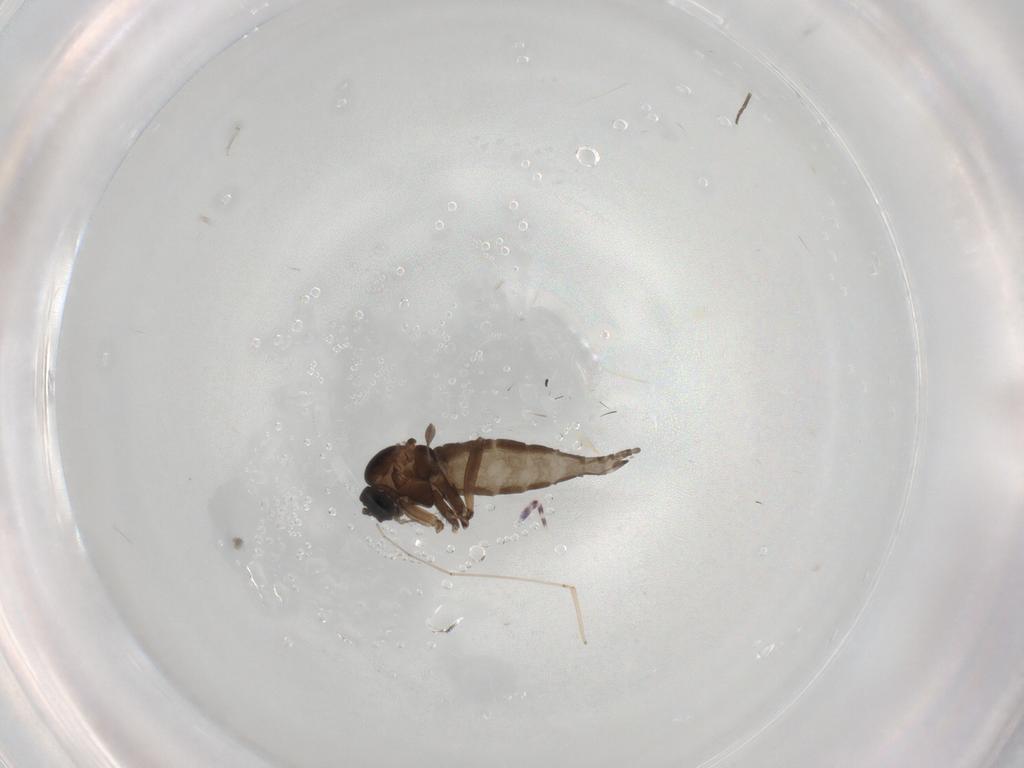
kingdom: Animalia
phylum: Arthropoda
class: Insecta
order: Diptera
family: Sciaridae
